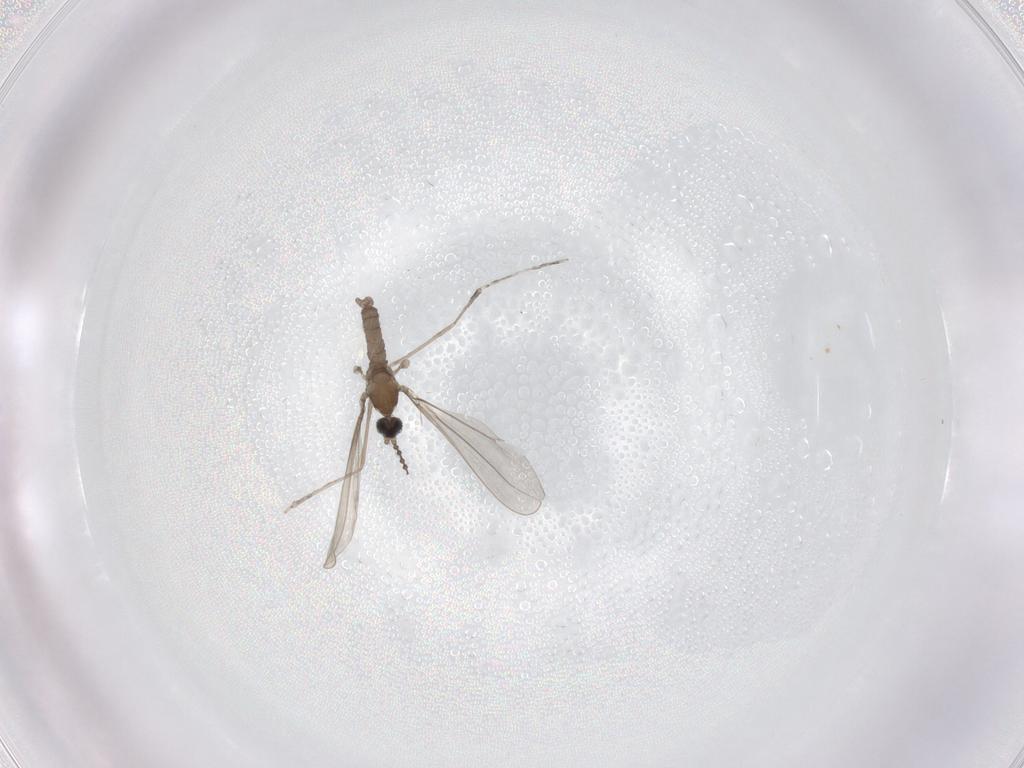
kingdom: Animalia
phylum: Arthropoda
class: Insecta
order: Diptera
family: Cecidomyiidae
